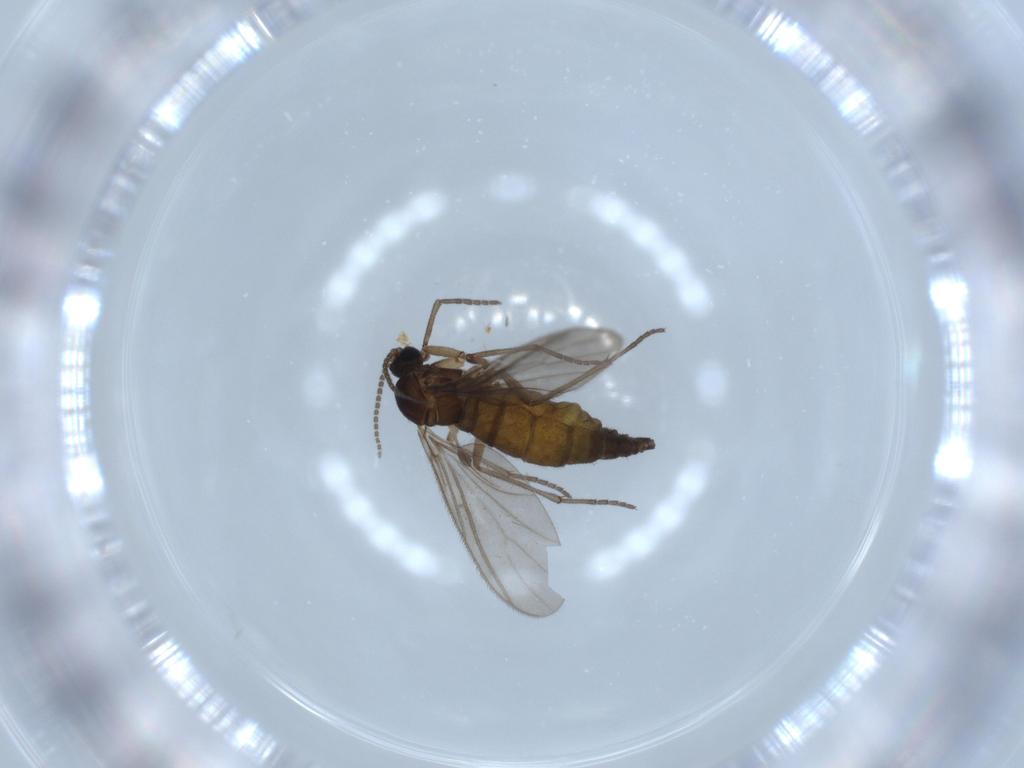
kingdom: Animalia
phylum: Arthropoda
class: Insecta
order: Diptera
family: Sciaridae
